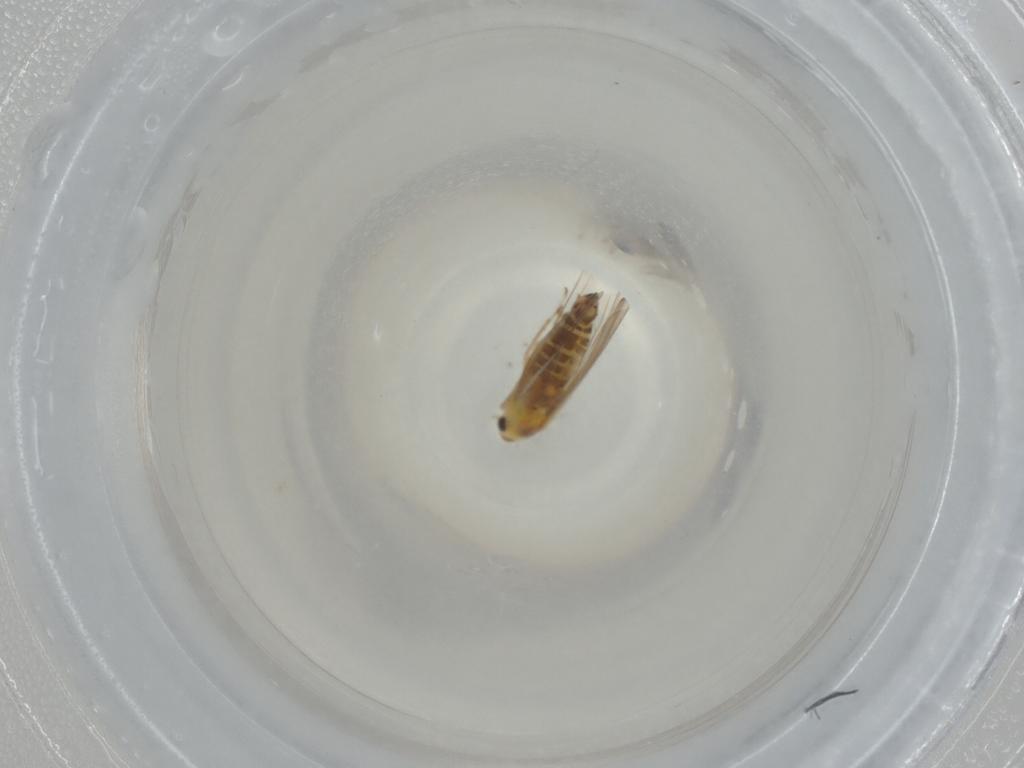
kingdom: Animalia
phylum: Arthropoda
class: Insecta
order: Hemiptera
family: Cicadellidae
